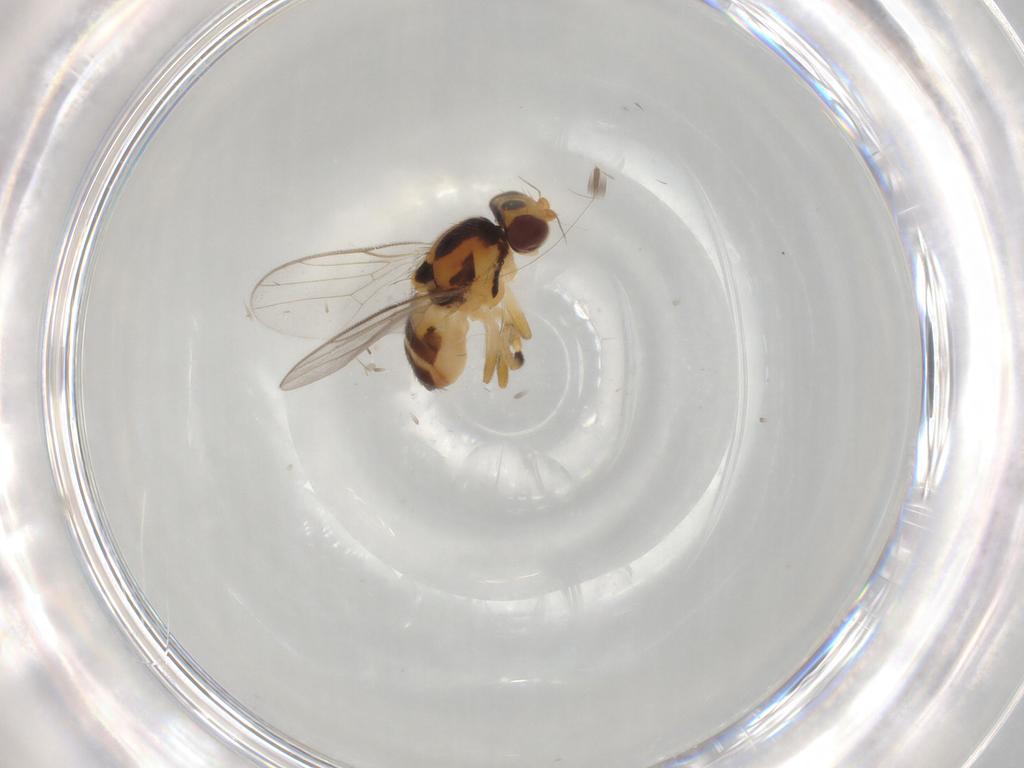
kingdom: Animalia
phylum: Arthropoda
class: Insecta
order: Diptera
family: Chloropidae
